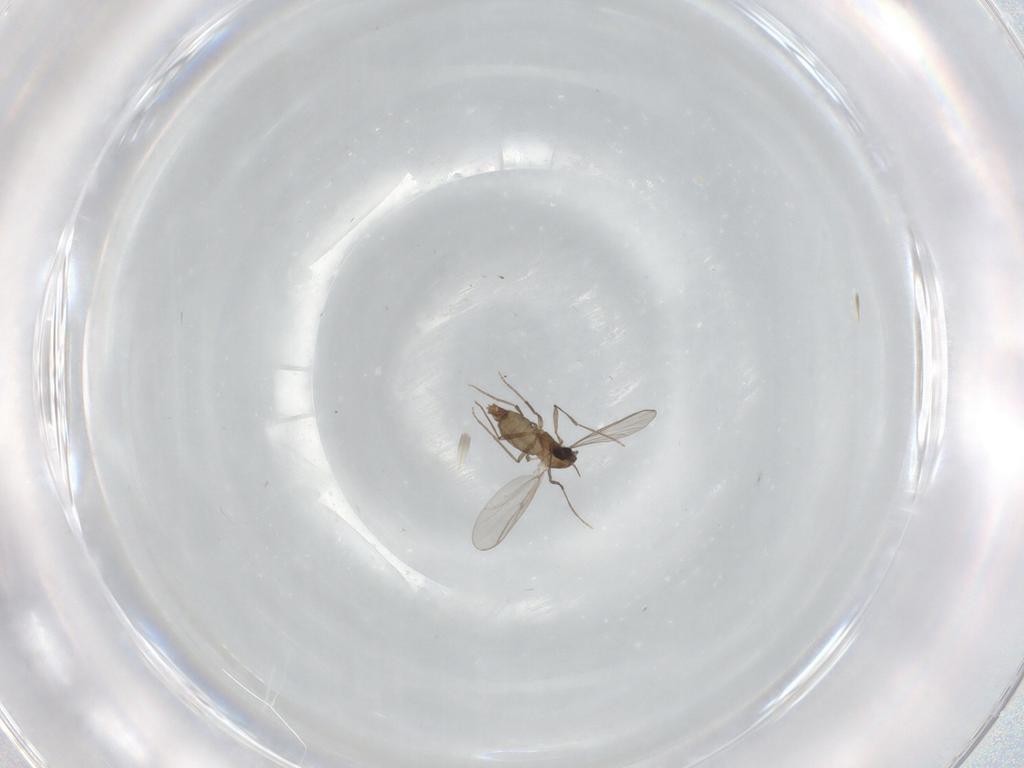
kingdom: Animalia
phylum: Arthropoda
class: Insecta
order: Diptera
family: Chironomidae
